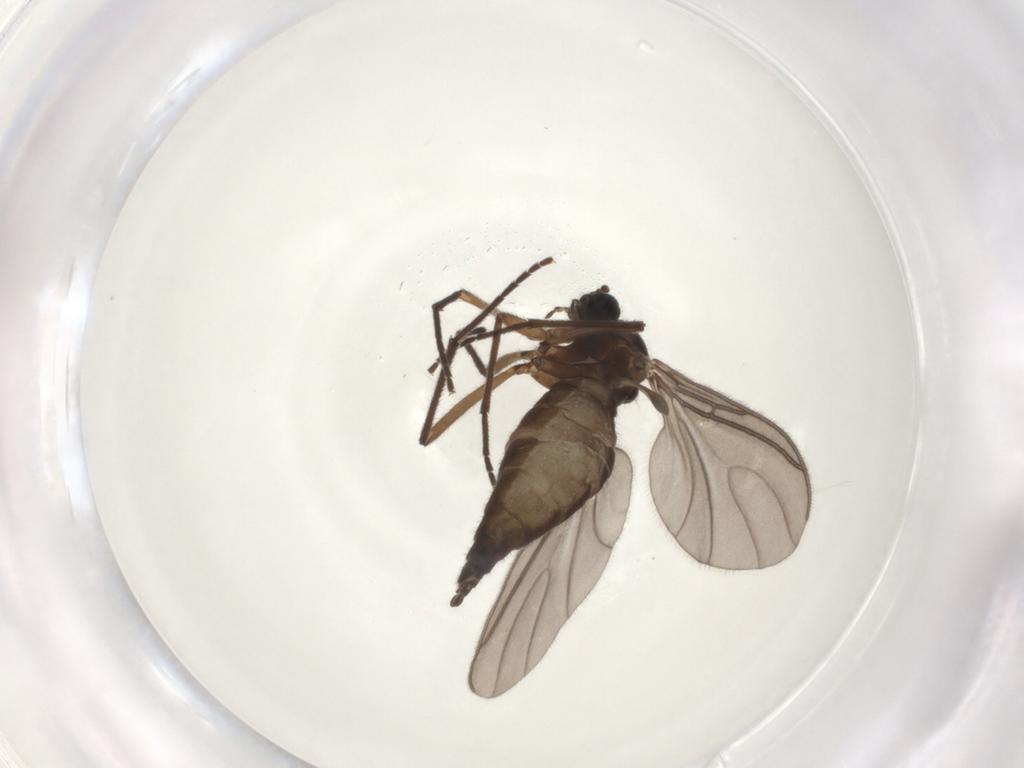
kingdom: Animalia
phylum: Arthropoda
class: Insecta
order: Diptera
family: Sciaridae
